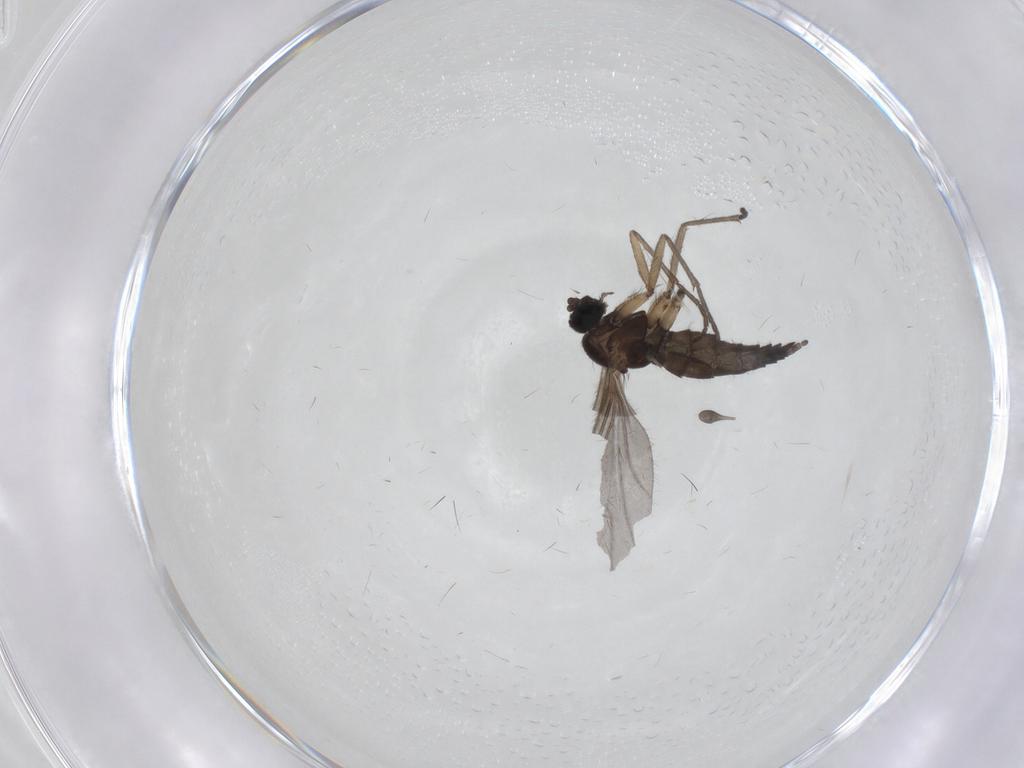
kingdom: Animalia
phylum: Arthropoda
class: Insecta
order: Diptera
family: Sciaridae
